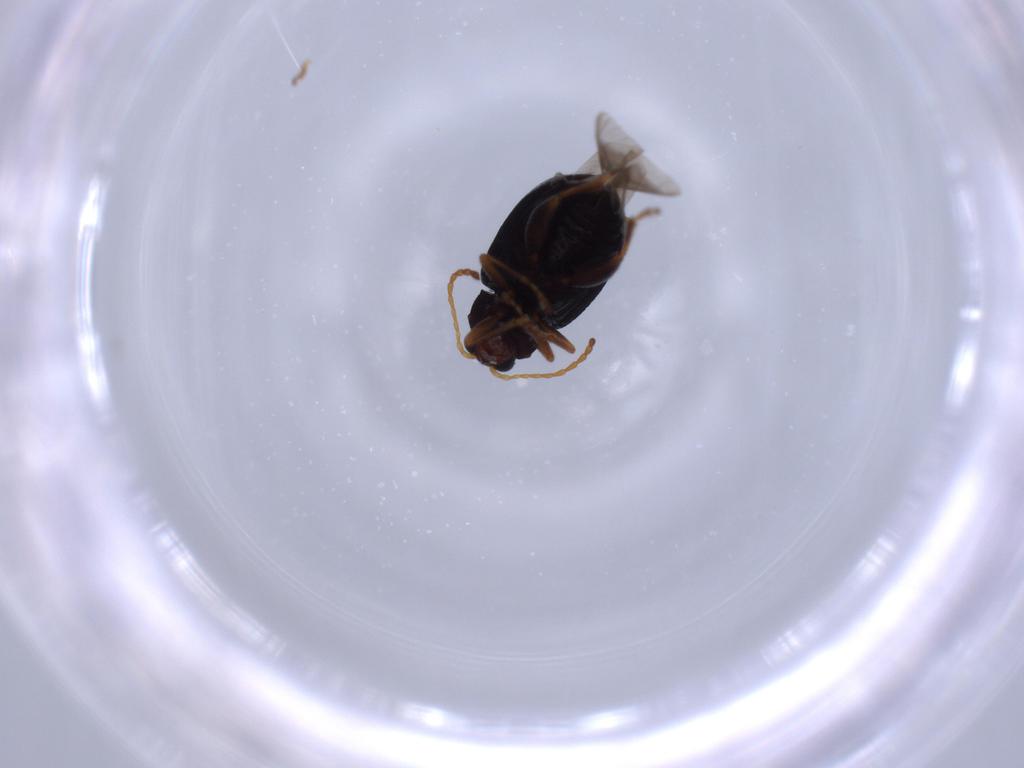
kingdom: Animalia
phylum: Arthropoda
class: Insecta
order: Coleoptera
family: Chrysomelidae
